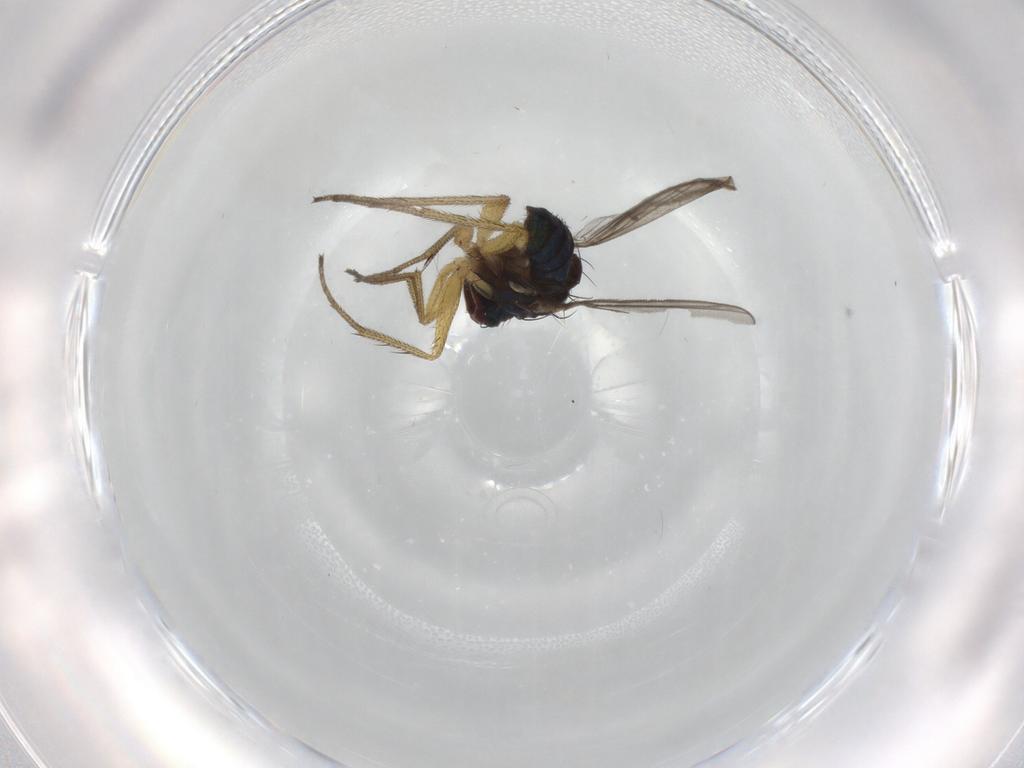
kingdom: Animalia
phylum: Arthropoda
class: Insecta
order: Diptera
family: Dolichopodidae
